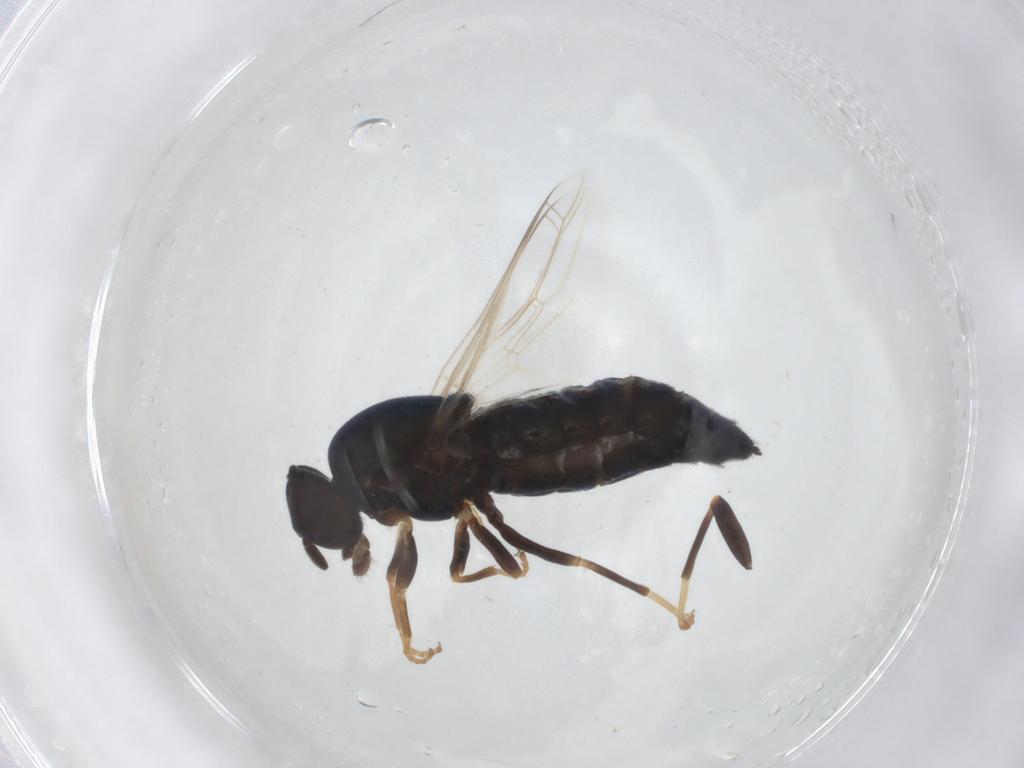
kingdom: Animalia
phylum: Arthropoda
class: Insecta
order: Diptera
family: Scenopinidae
